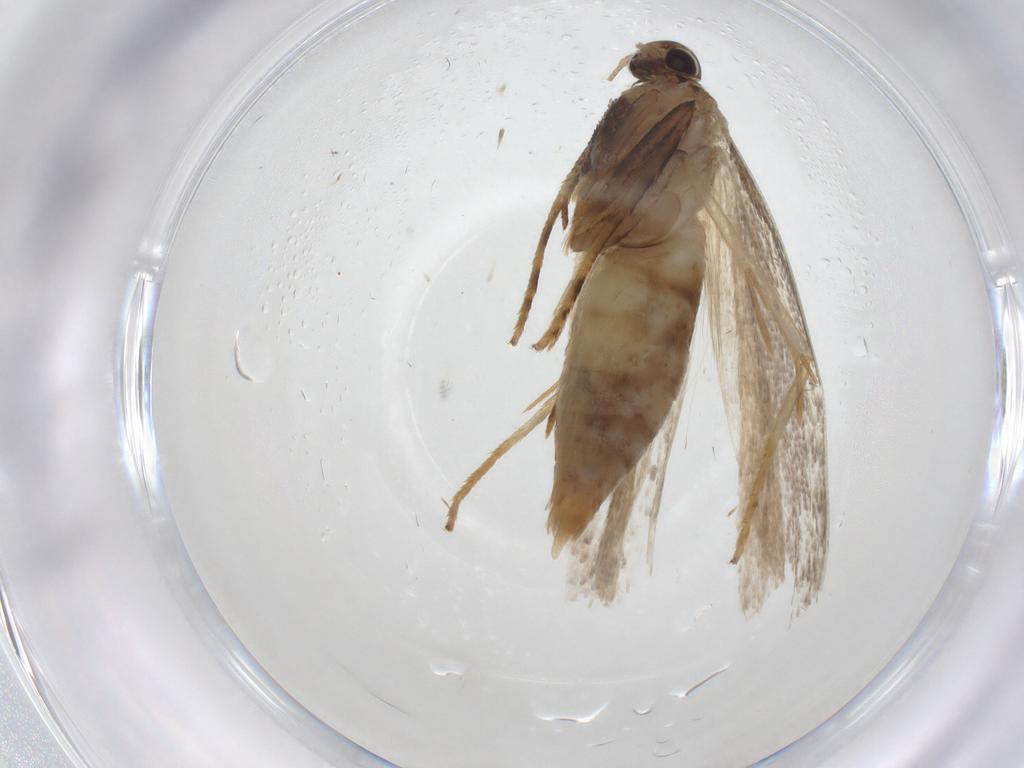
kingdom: Animalia
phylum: Arthropoda
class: Insecta
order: Lepidoptera
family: Gelechiidae
